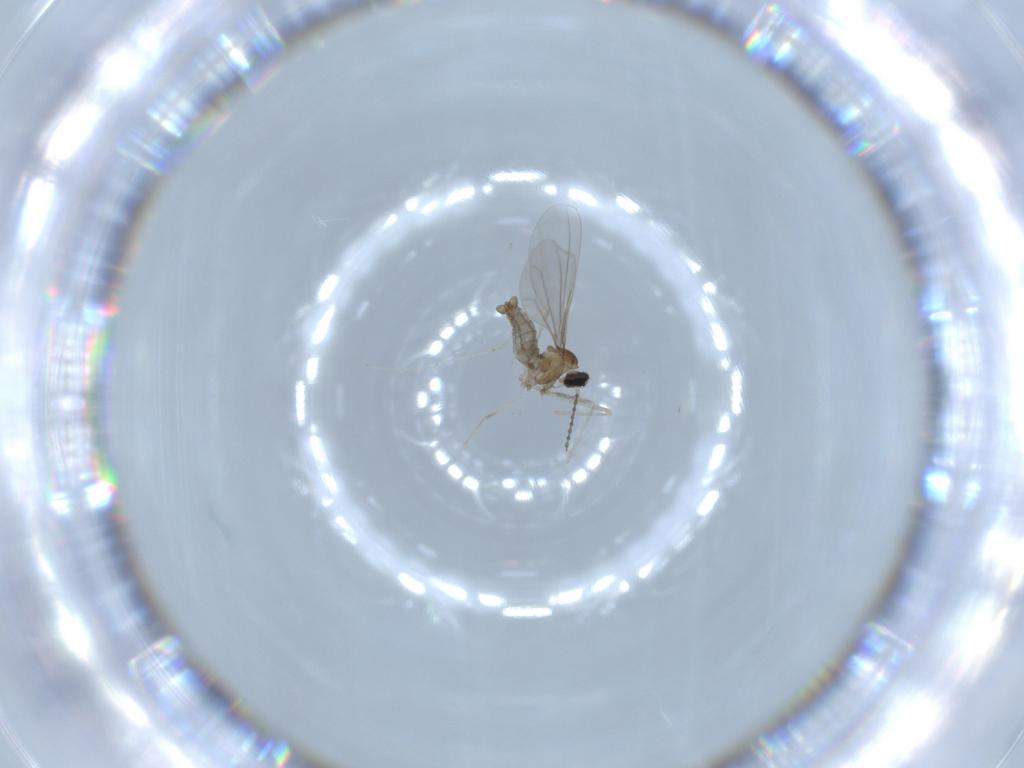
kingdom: Animalia
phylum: Arthropoda
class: Insecta
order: Diptera
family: Cecidomyiidae
